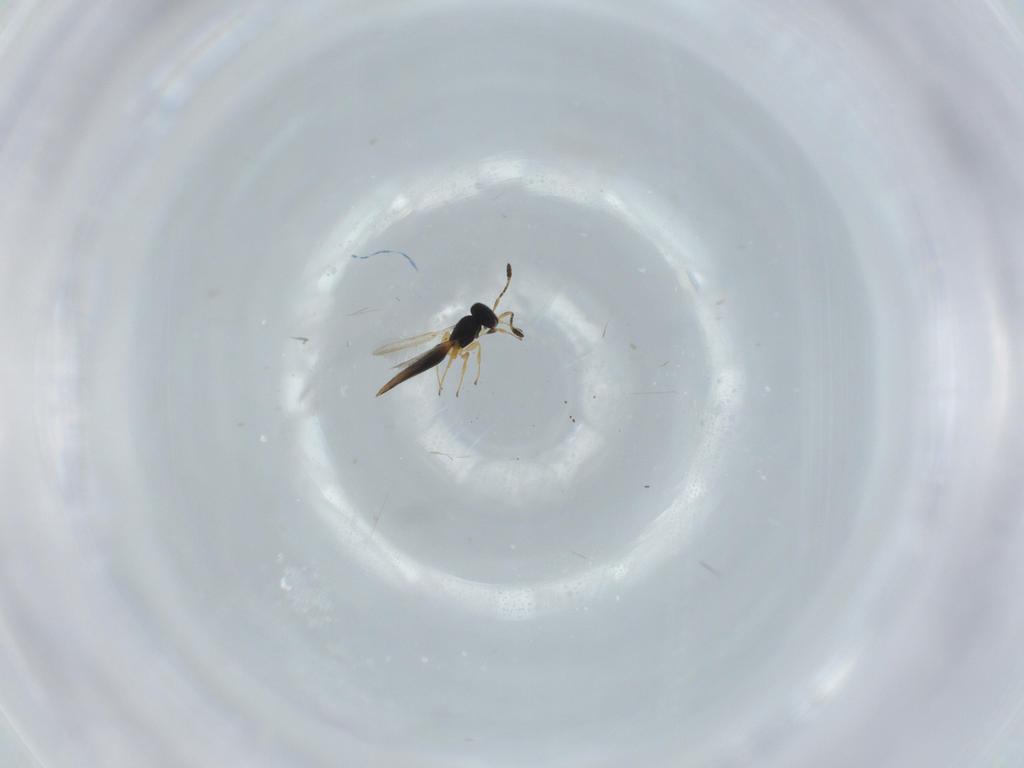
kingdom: Animalia
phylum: Arthropoda
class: Insecta
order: Hymenoptera
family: Scelionidae
